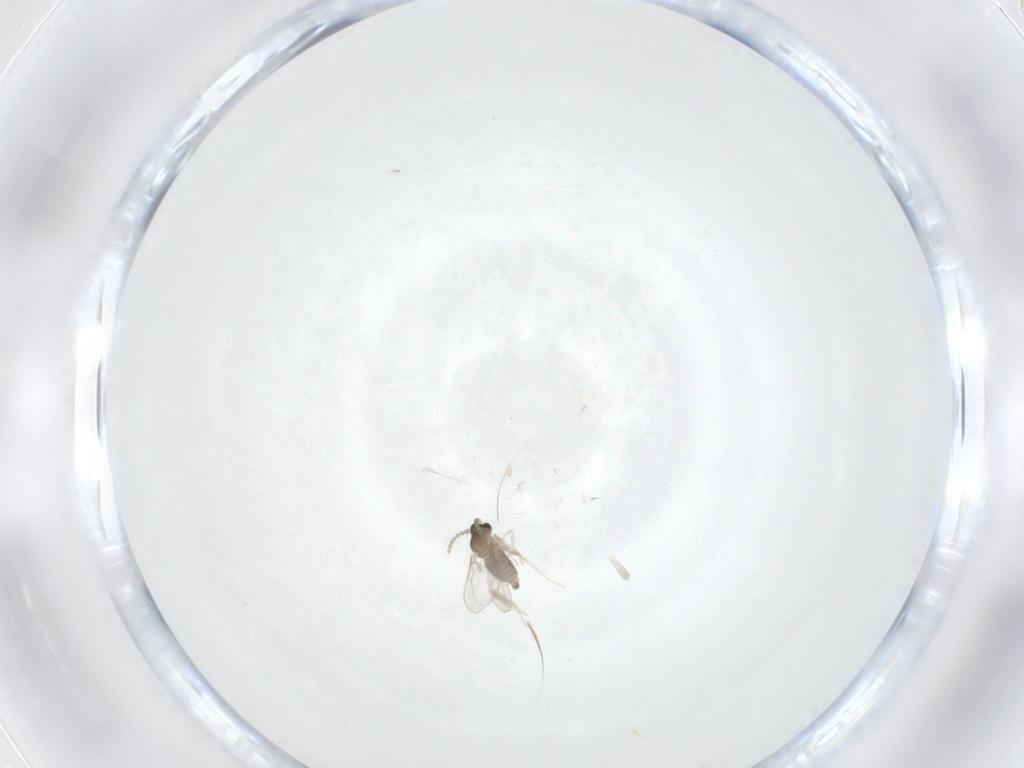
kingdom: Animalia
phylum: Arthropoda
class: Insecta
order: Diptera
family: Cecidomyiidae
